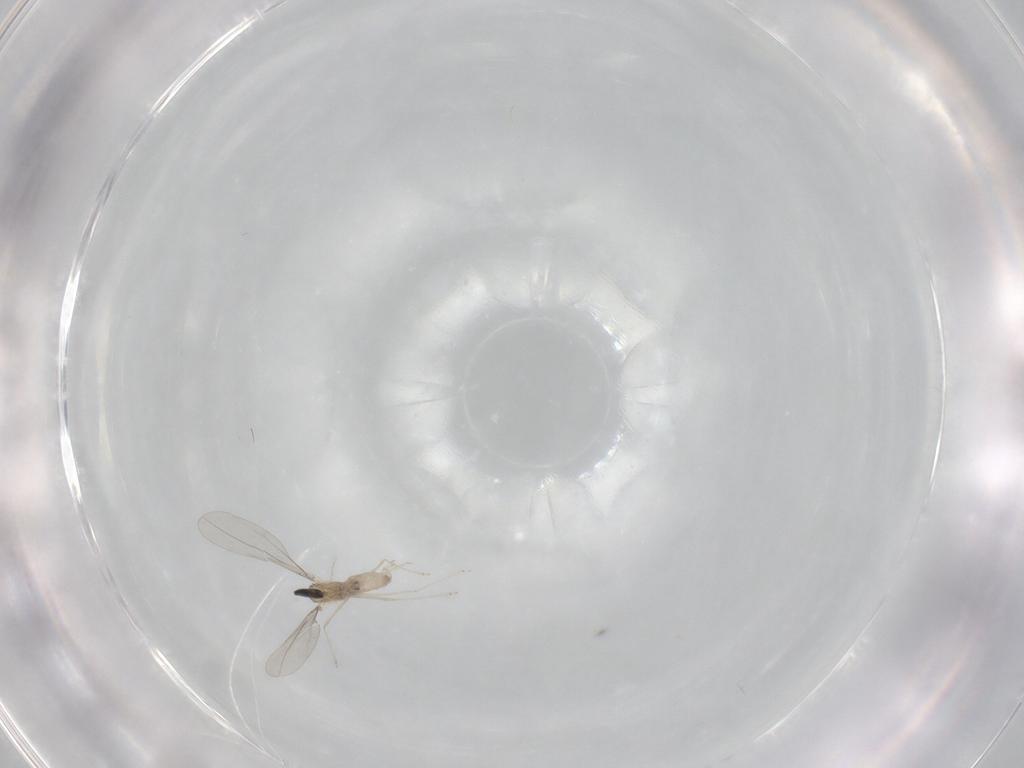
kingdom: Animalia
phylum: Arthropoda
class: Insecta
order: Diptera
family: Cecidomyiidae
